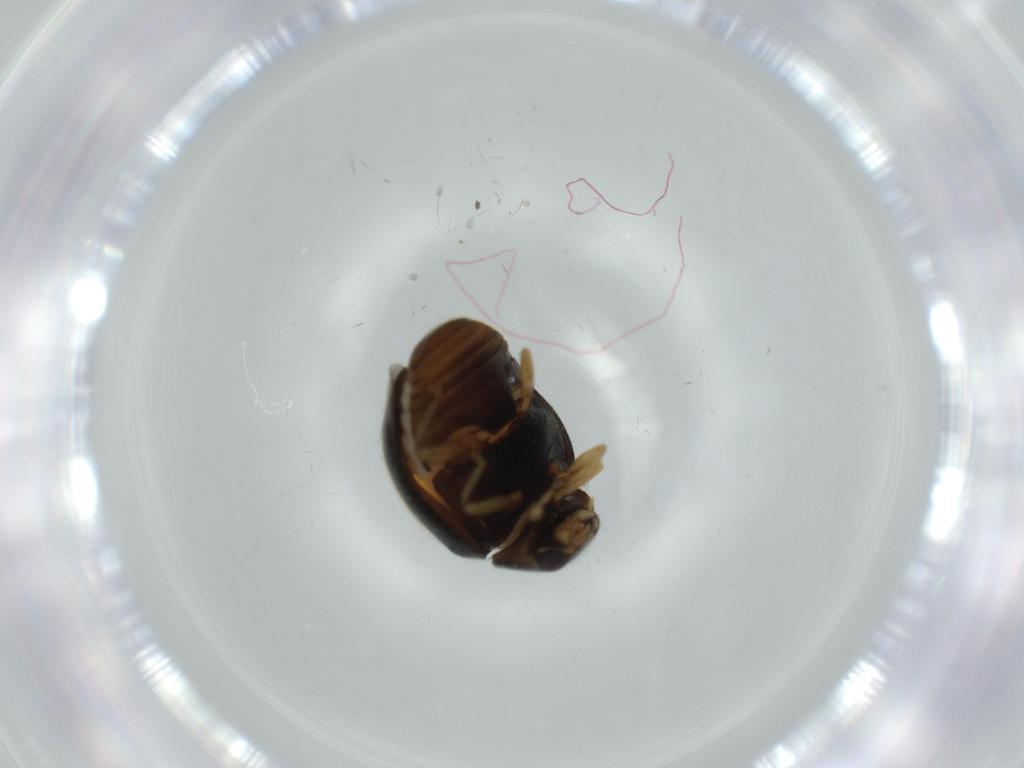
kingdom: Animalia
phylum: Arthropoda
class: Insecta
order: Coleoptera
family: Coccinellidae
